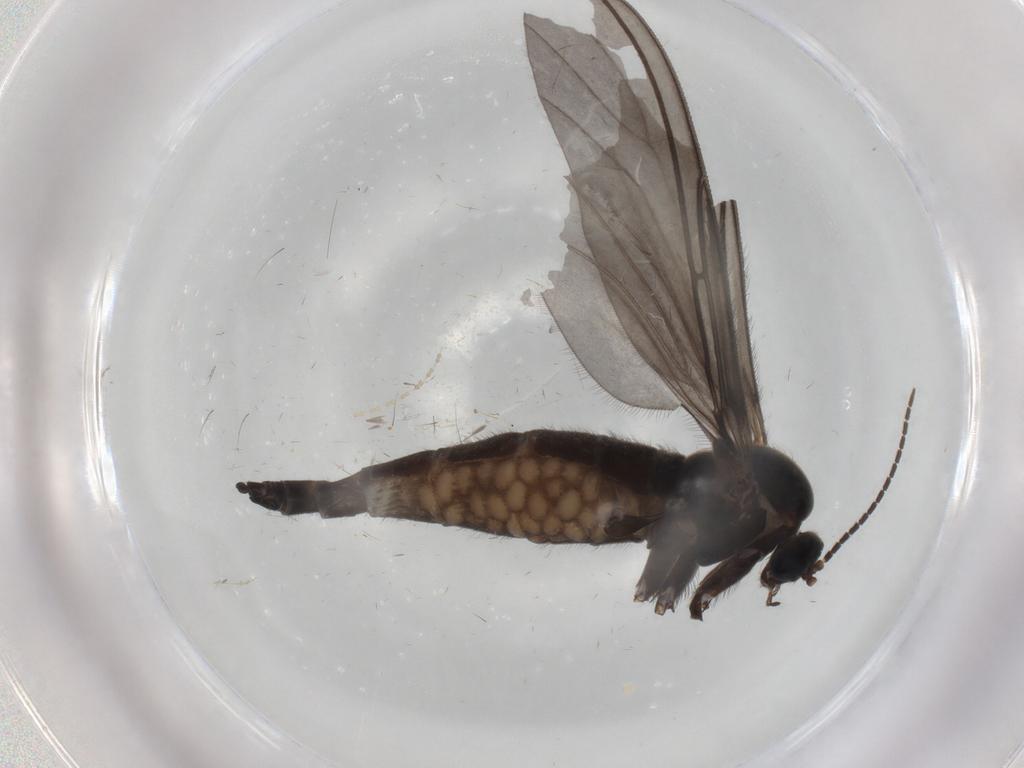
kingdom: Animalia
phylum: Arthropoda
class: Insecta
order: Diptera
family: Sciaridae
